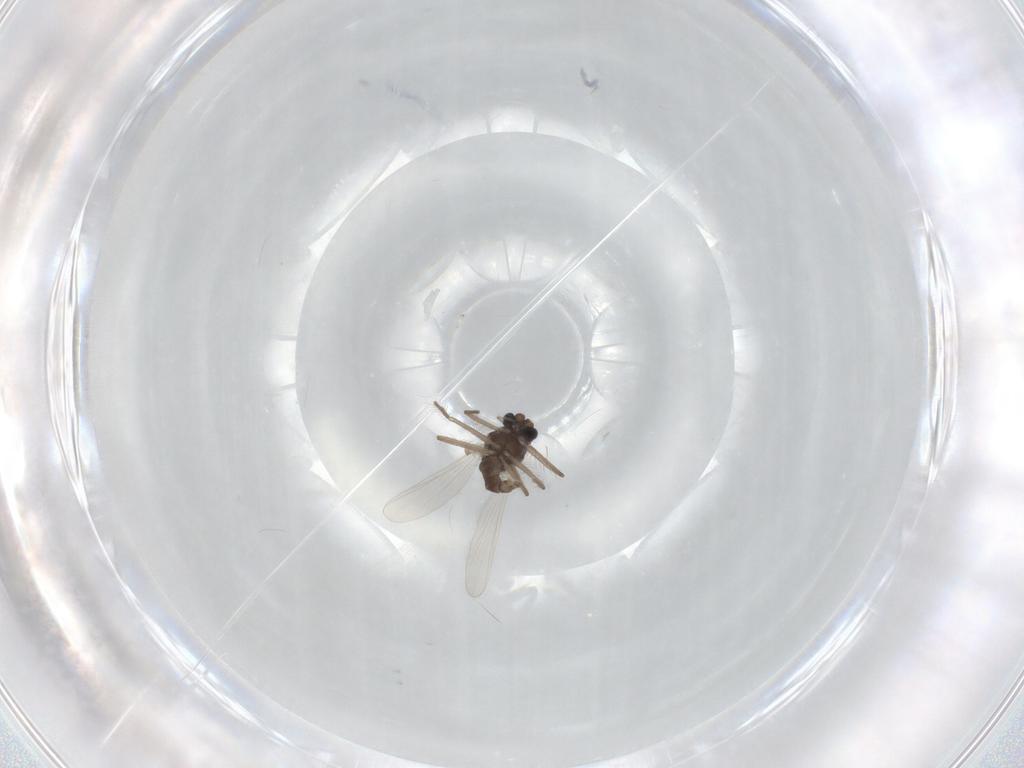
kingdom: Animalia
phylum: Arthropoda
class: Insecta
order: Diptera
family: Chironomidae
